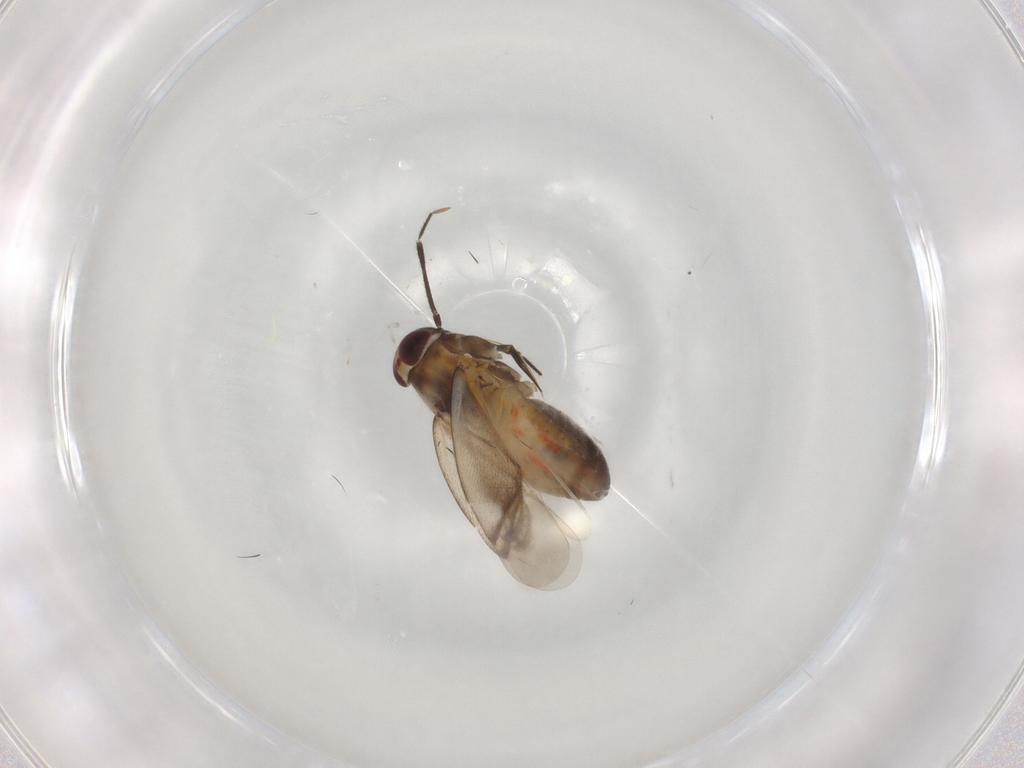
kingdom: Animalia
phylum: Arthropoda
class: Insecta
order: Hemiptera
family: Miridae
